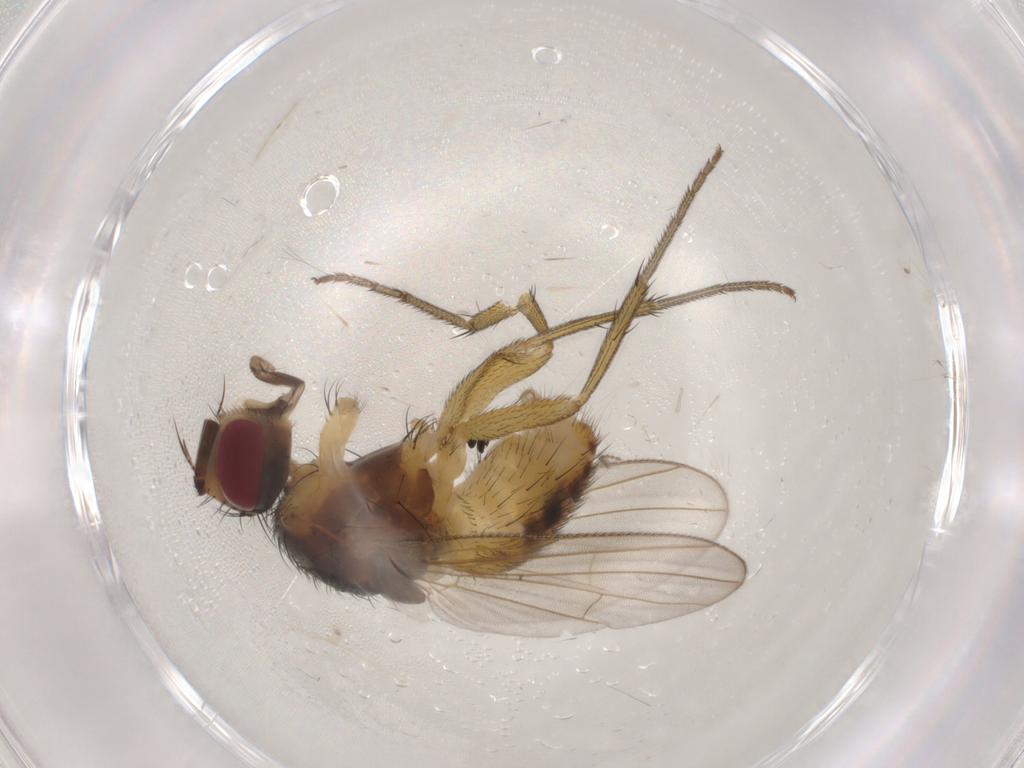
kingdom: Animalia
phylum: Arthropoda
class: Insecta
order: Diptera
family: Muscidae
